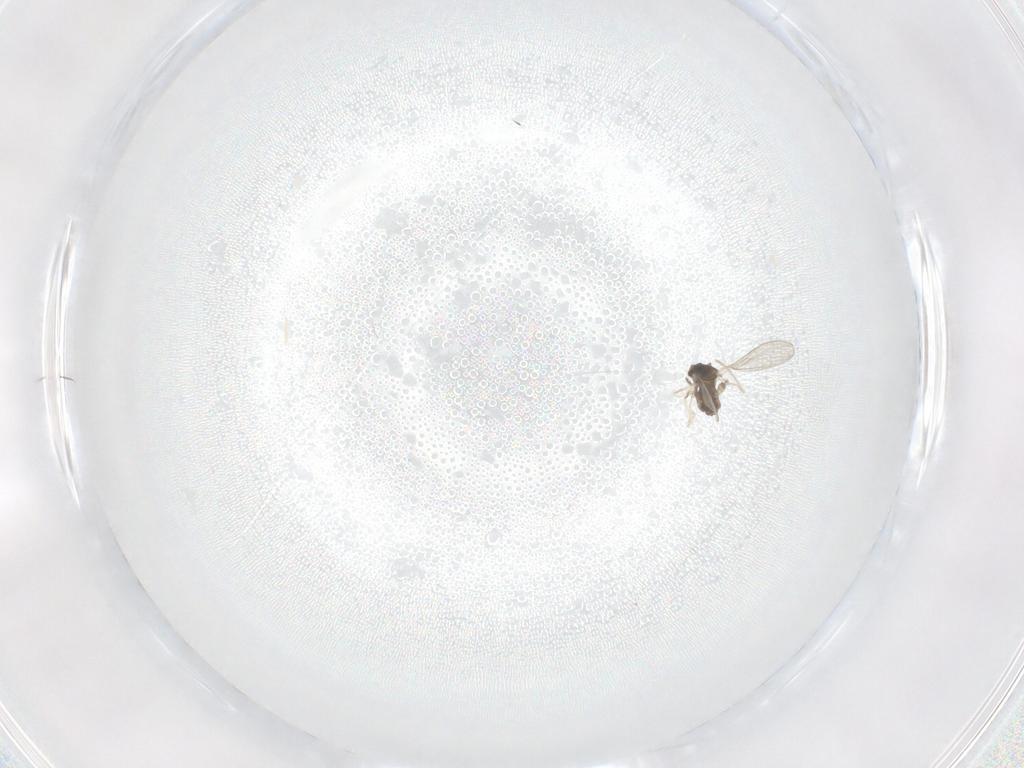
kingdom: Animalia
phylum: Arthropoda
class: Insecta
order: Diptera
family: Cecidomyiidae
